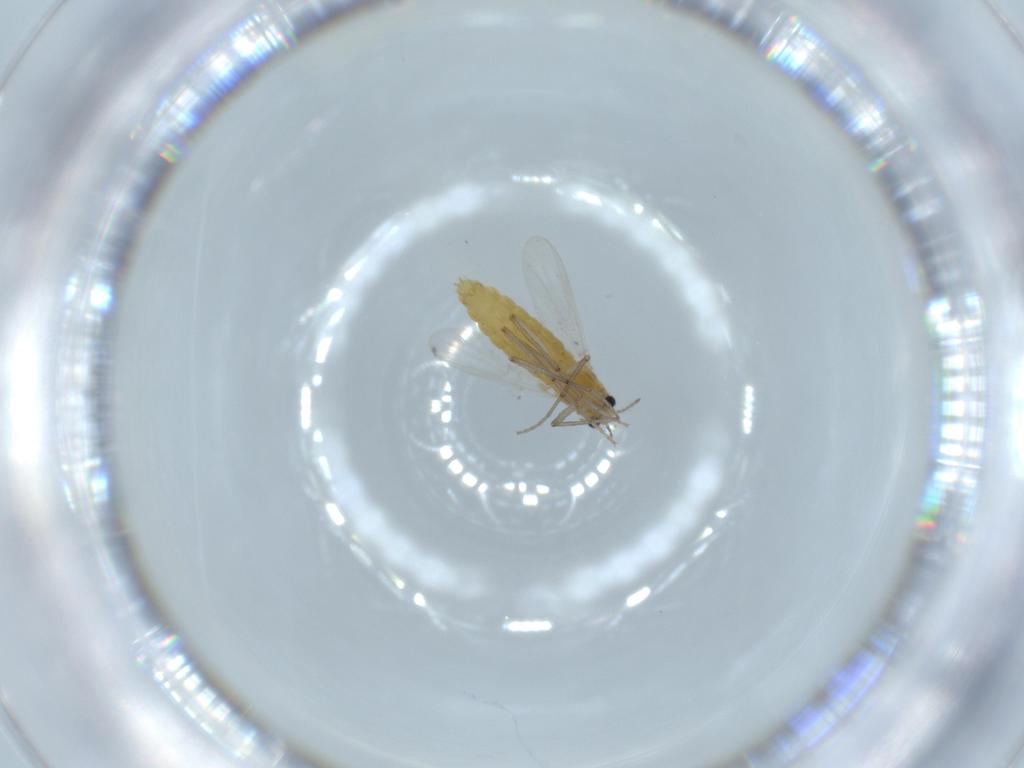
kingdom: Animalia
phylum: Arthropoda
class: Insecta
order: Diptera
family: Chironomidae
